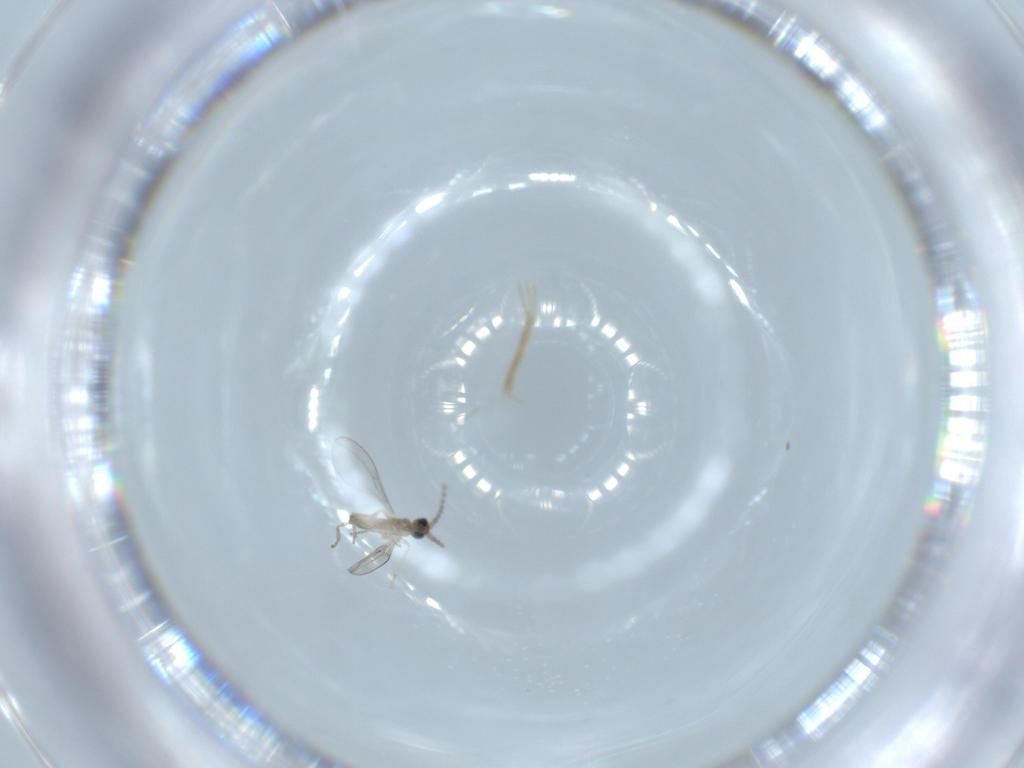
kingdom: Animalia
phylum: Arthropoda
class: Insecta
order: Diptera
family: Cecidomyiidae
